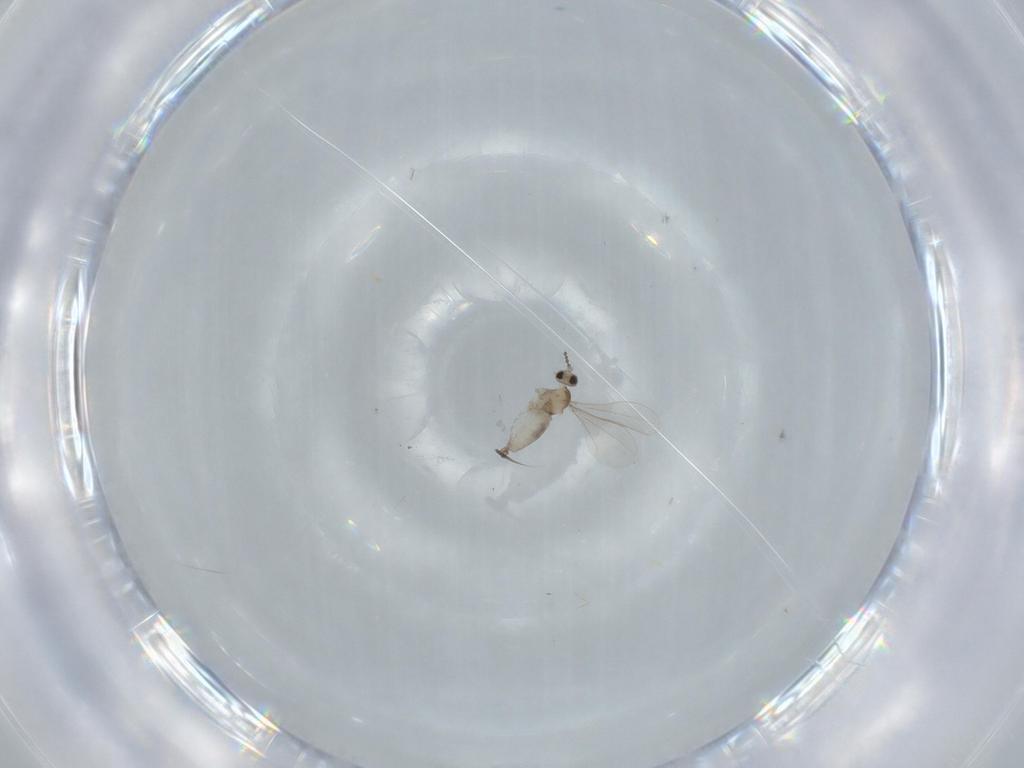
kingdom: Animalia
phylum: Arthropoda
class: Insecta
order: Diptera
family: Cecidomyiidae
